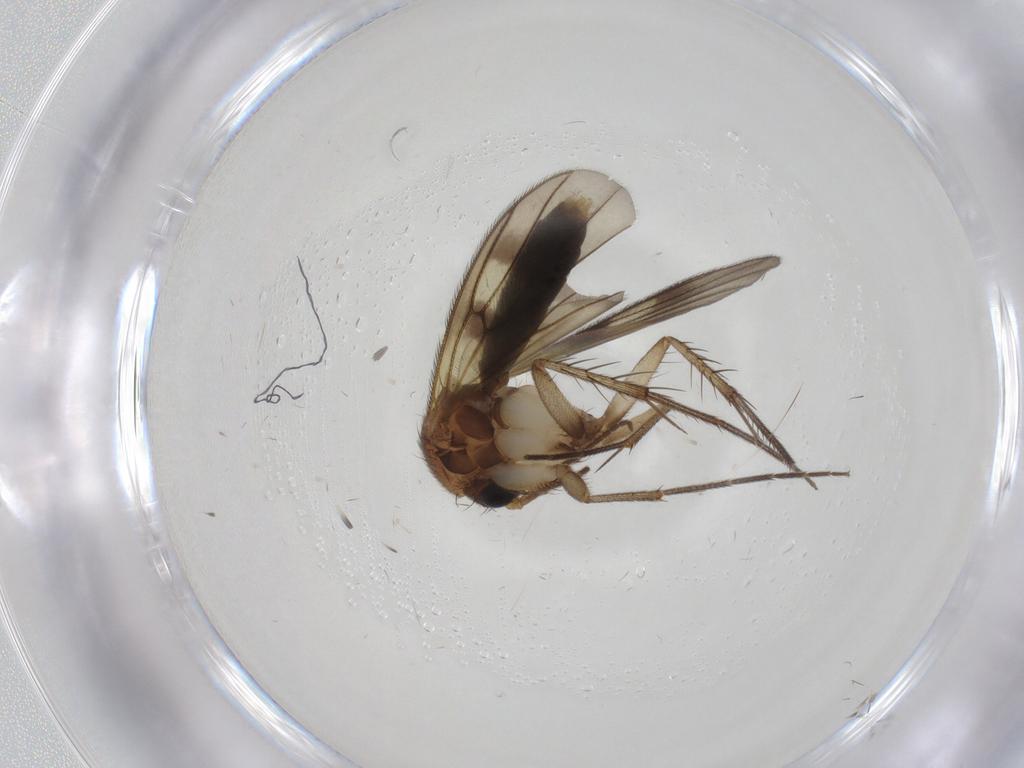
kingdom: Animalia
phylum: Arthropoda
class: Insecta
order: Diptera
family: Mycetophilidae
